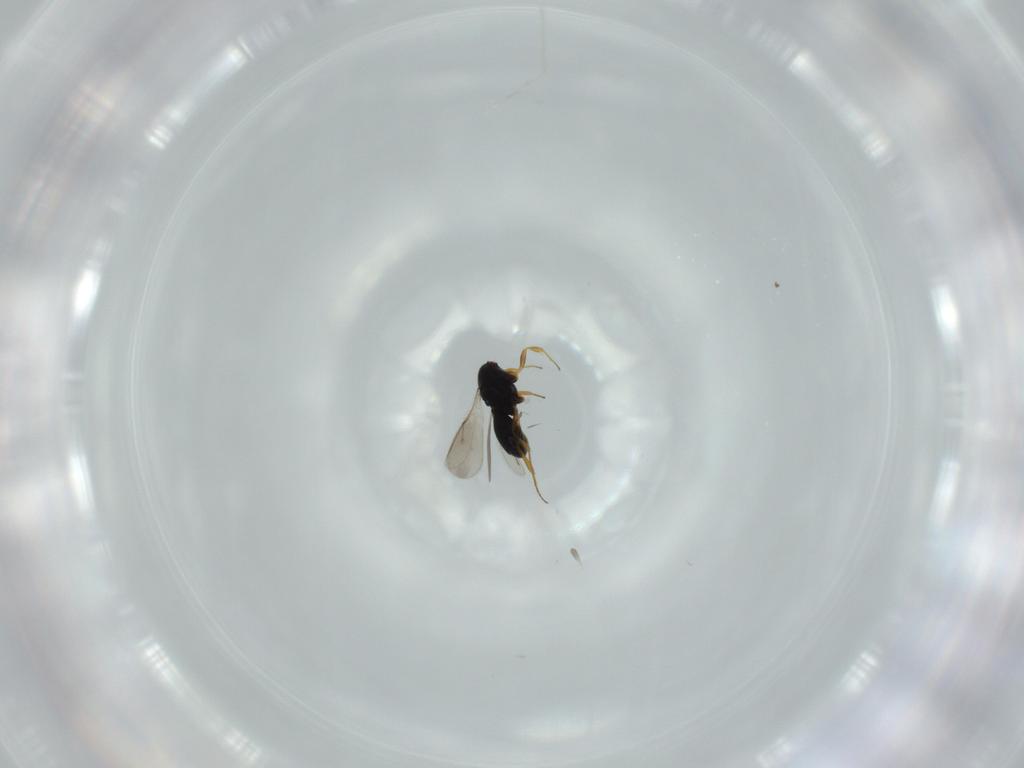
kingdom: Animalia
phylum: Arthropoda
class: Insecta
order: Hymenoptera
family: Scelionidae
